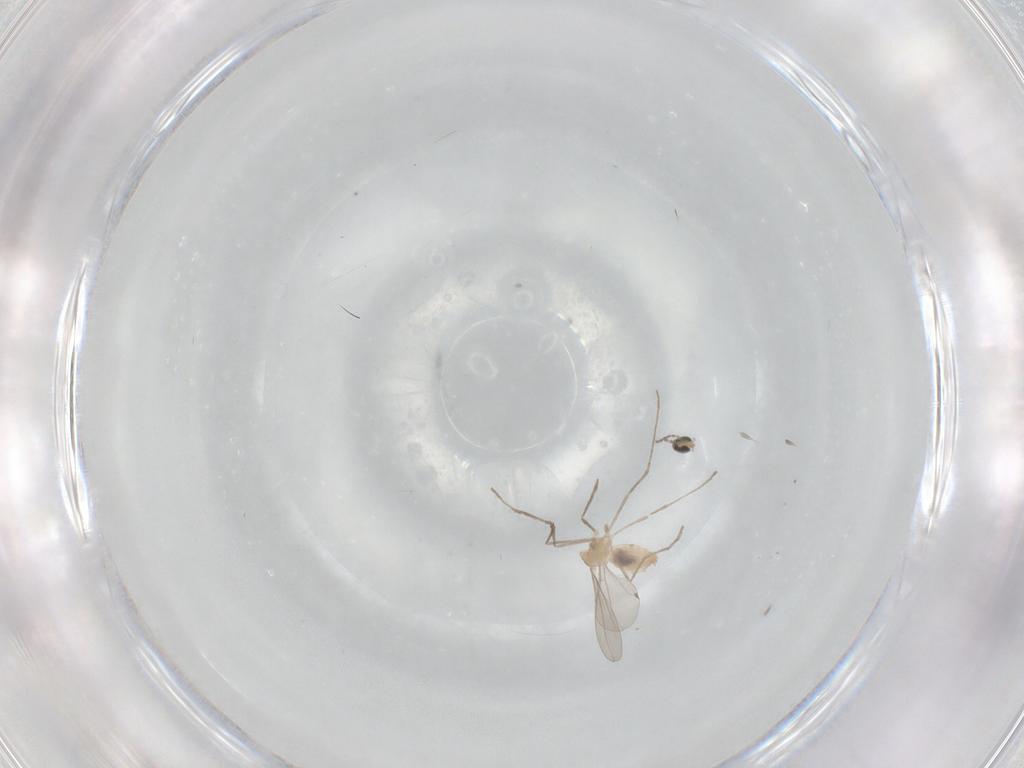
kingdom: Animalia
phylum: Arthropoda
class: Insecta
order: Diptera
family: Cecidomyiidae
